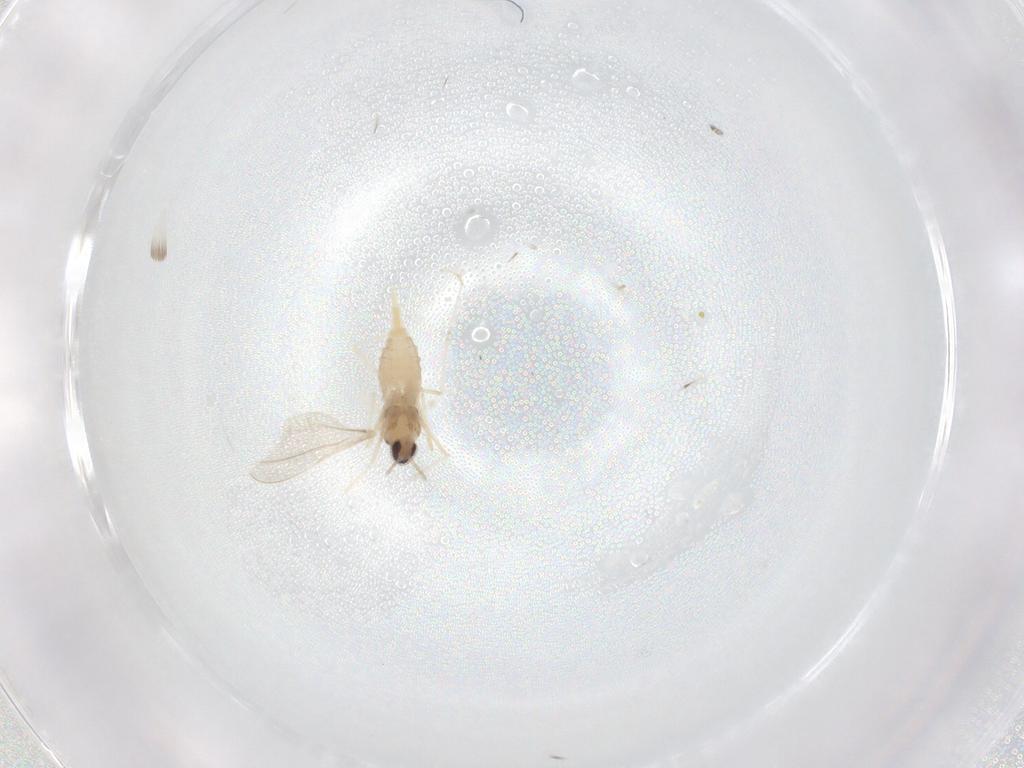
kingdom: Animalia
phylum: Arthropoda
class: Insecta
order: Diptera
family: Cecidomyiidae
